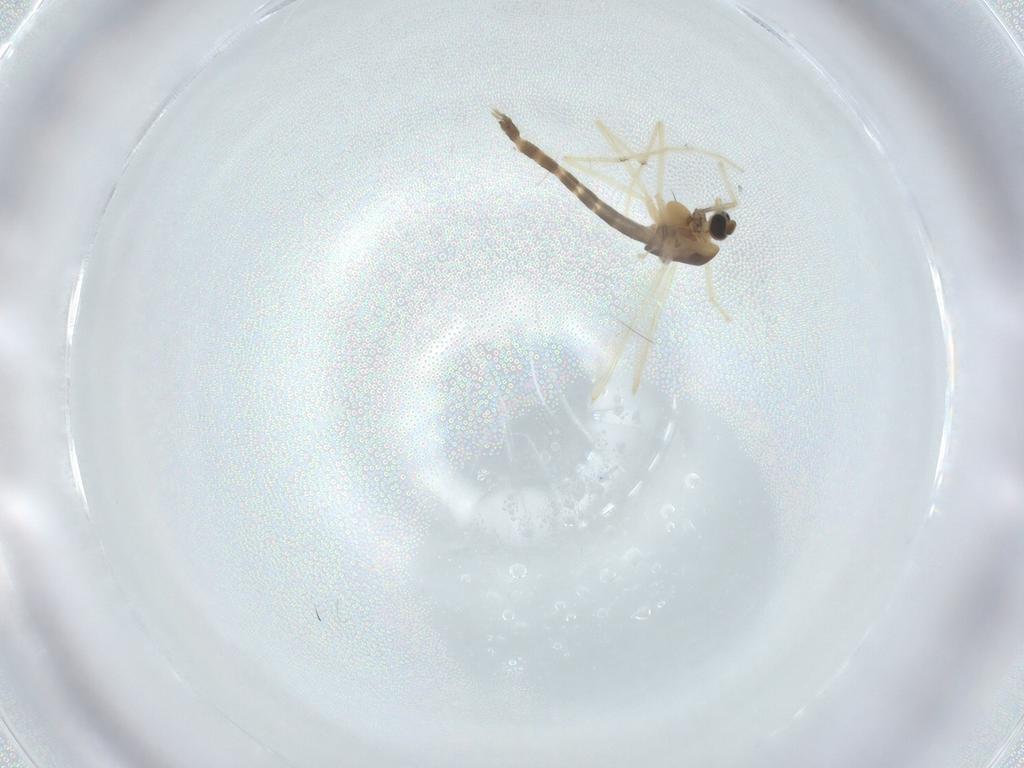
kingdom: Animalia
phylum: Arthropoda
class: Insecta
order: Diptera
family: Chironomidae
